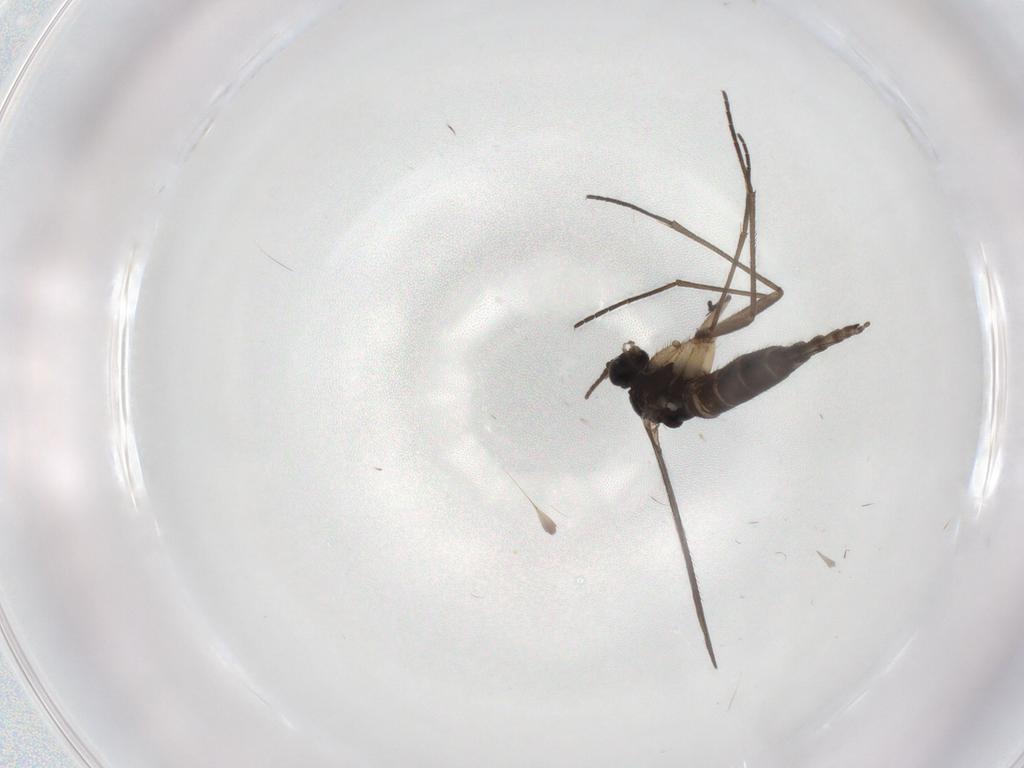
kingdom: Animalia
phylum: Arthropoda
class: Insecta
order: Diptera
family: Sciaridae
